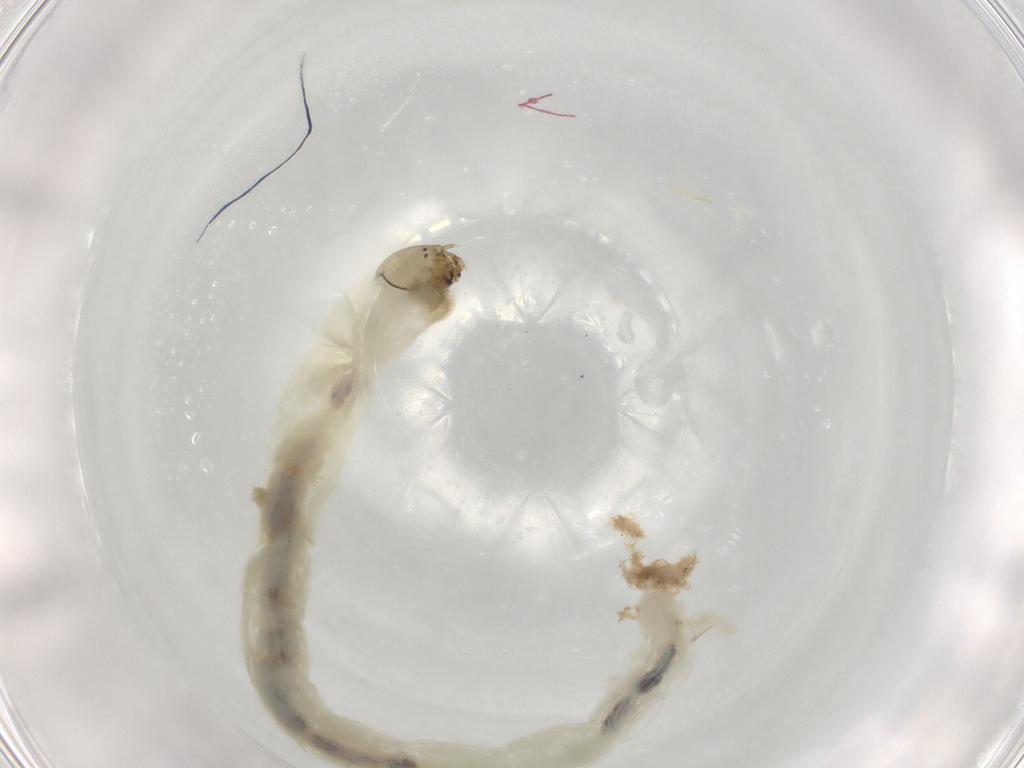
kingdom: Animalia
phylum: Arthropoda
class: Insecta
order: Diptera
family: Chironomidae
